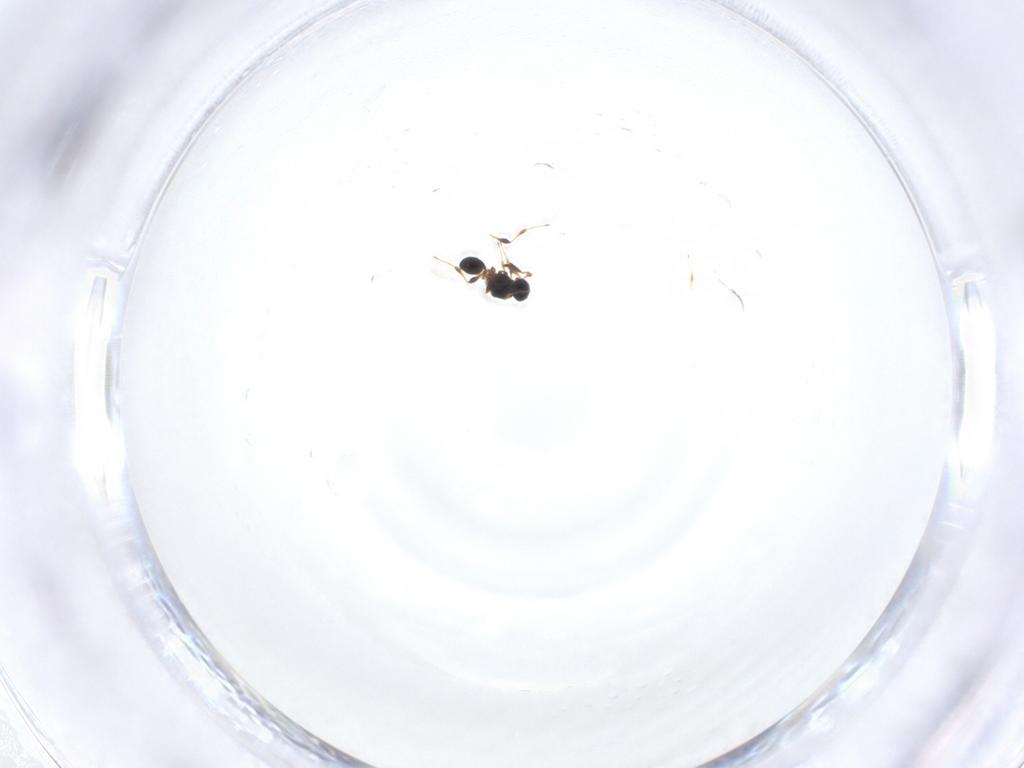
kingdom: Animalia
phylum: Arthropoda
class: Insecta
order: Hymenoptera
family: Platygastridae
